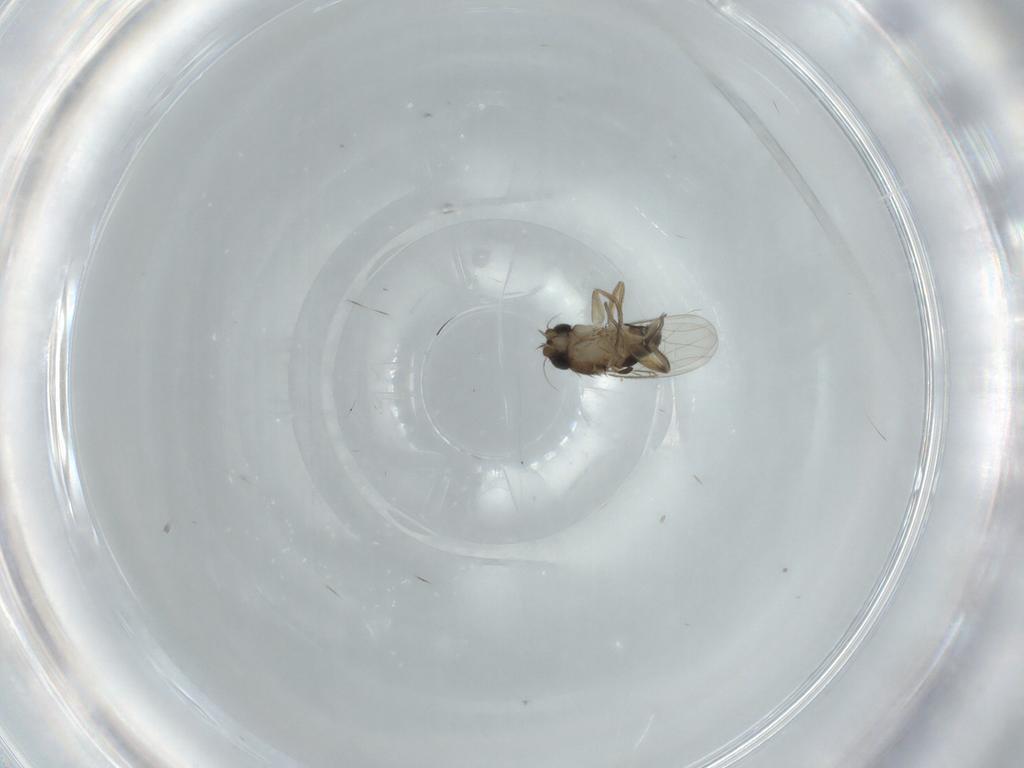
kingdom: Animalia
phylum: Arthropoda
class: Insecta
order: Diptera
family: Phoridae
